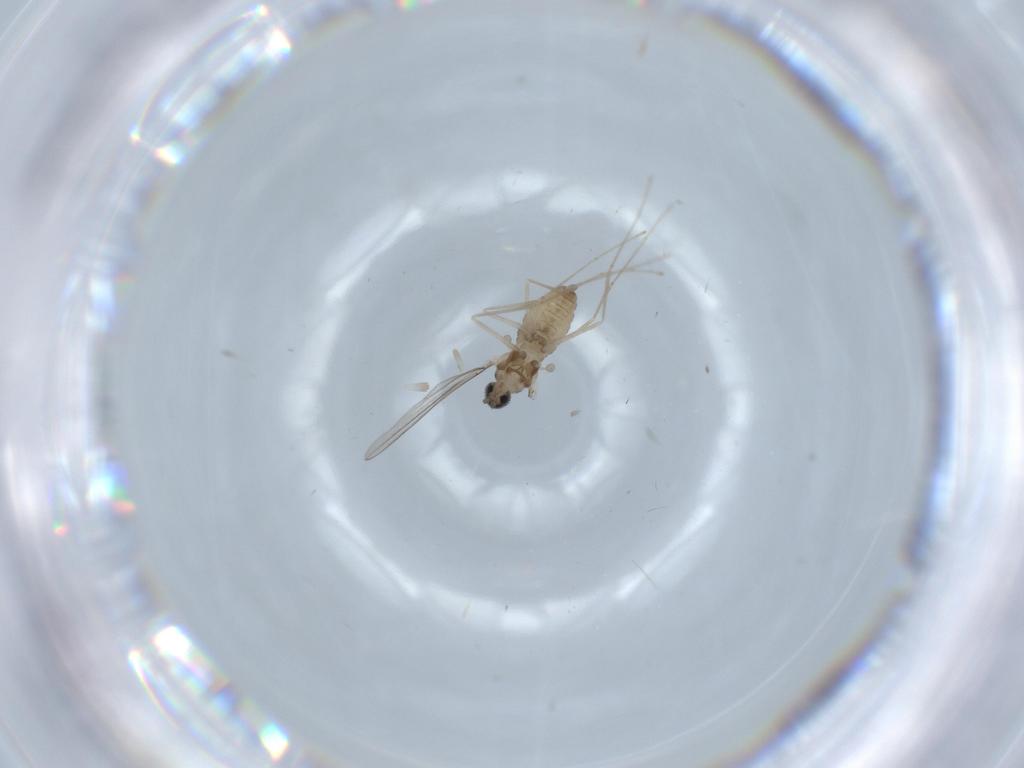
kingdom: Animalia
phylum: Arthropoda
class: Insecta
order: Diptera
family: Cecidomyiidae
